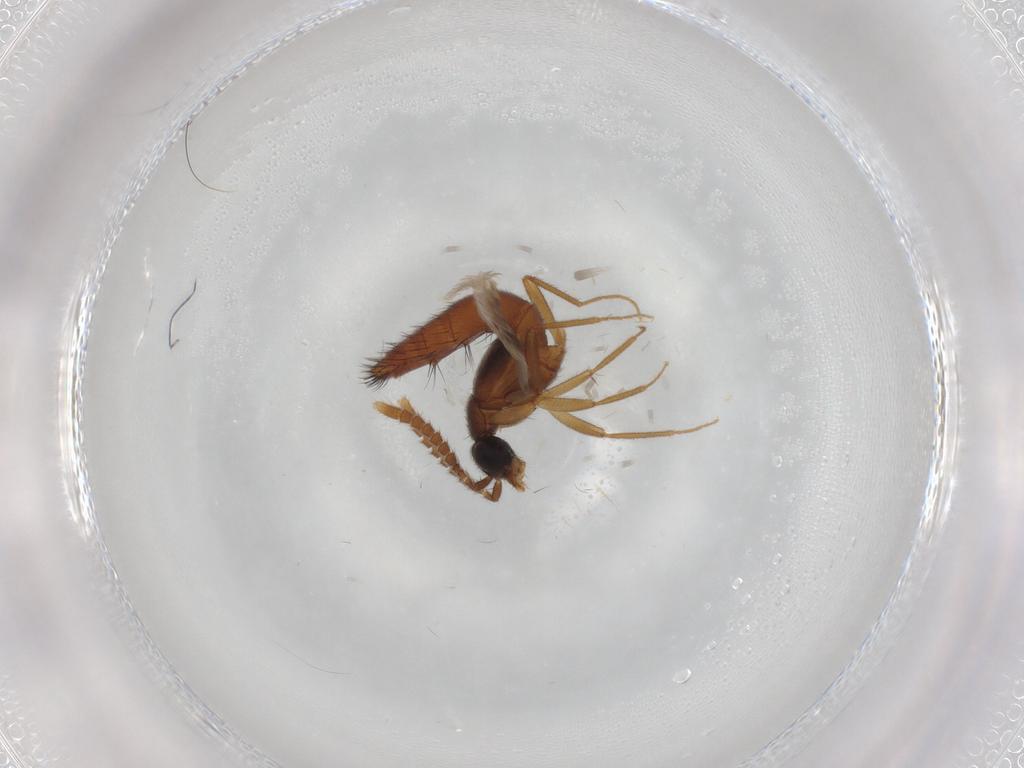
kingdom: Animalia
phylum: Arthropoda
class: Insecta
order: Coleoptera
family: Staphylinidae
